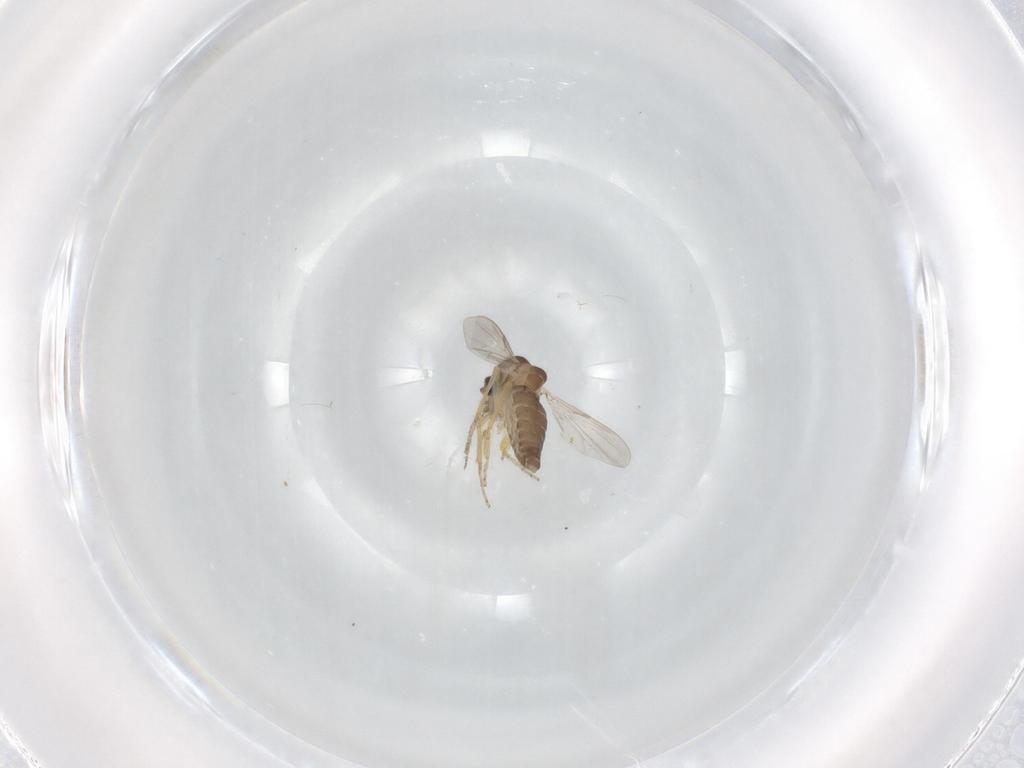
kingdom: Animalia
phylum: Arthropoda
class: Insecta
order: Diptera
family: Ceratopogonidae
